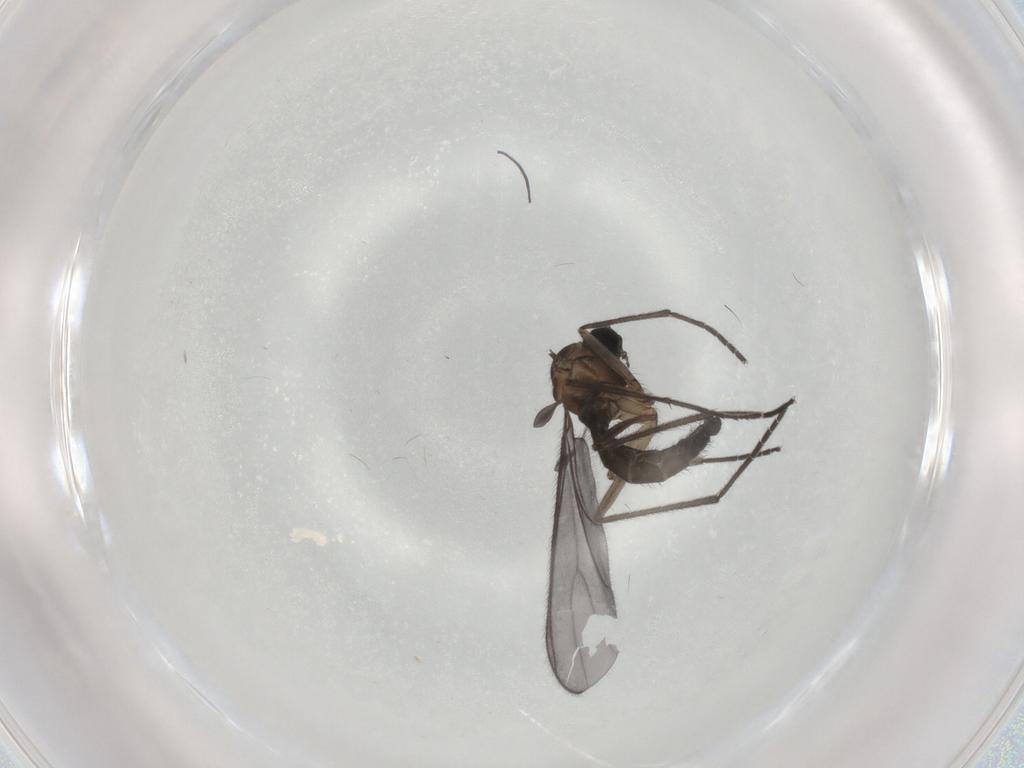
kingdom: Animalia
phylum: Arthropoda
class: Insecta
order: Diptera
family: Sciaridae
